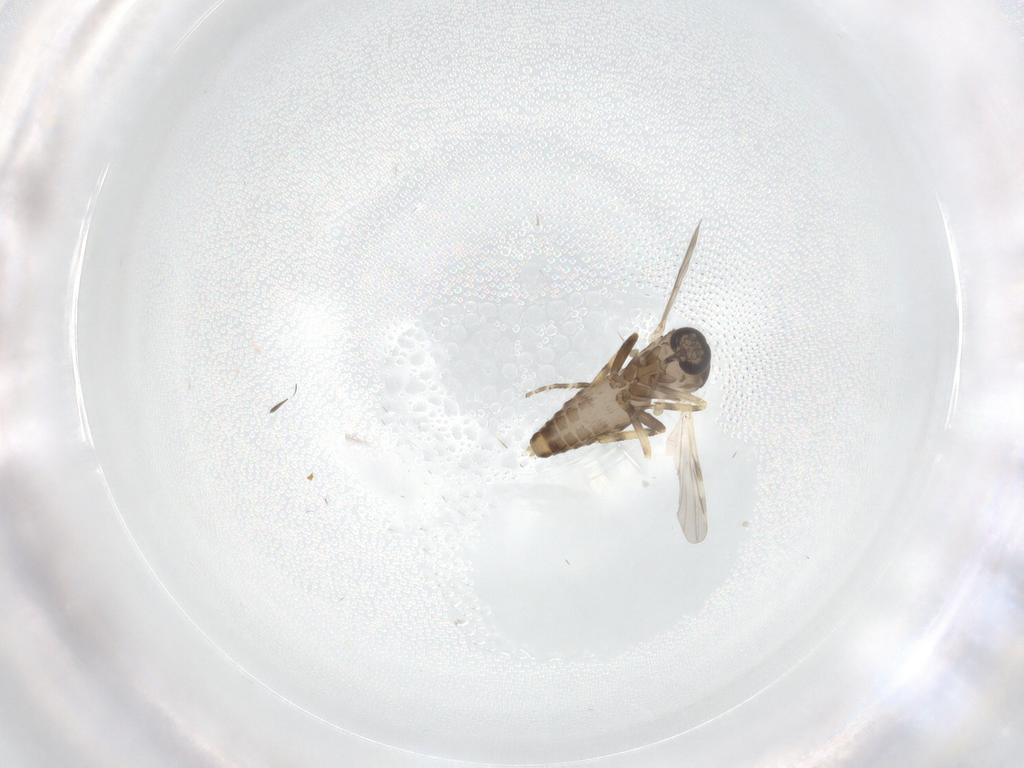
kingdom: Animalia
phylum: Arthropoda
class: Insecta
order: Diptera
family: Ceratopogonidae
